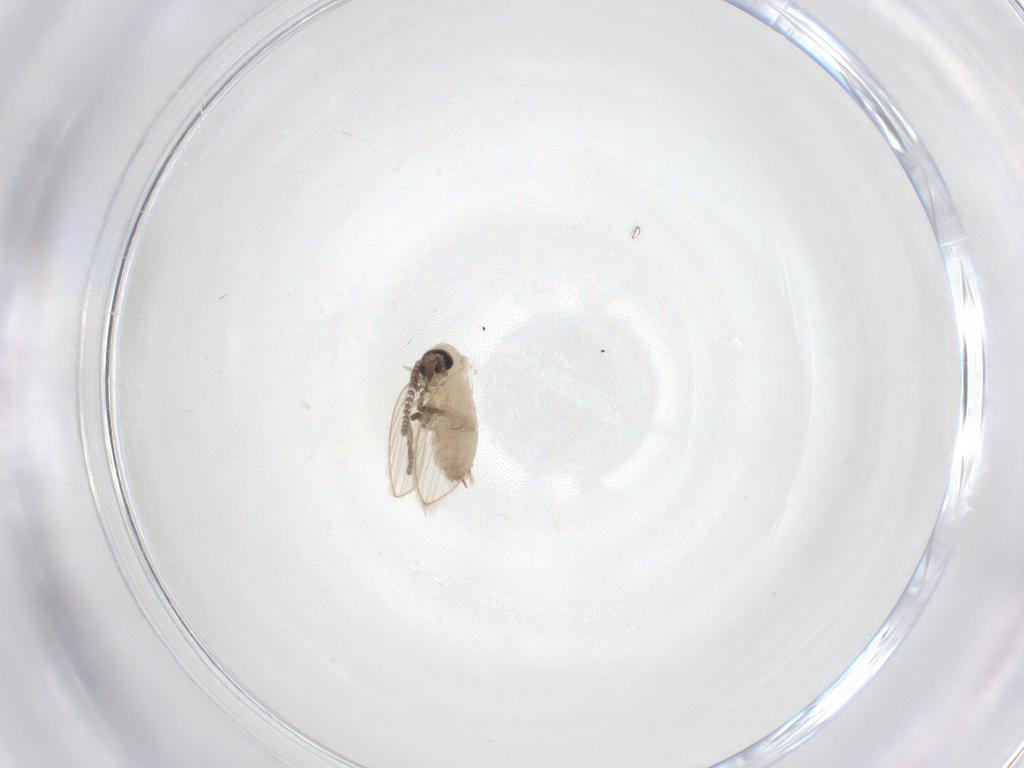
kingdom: Animalia
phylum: Arthropoda
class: Insecta
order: Diptera
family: Psychodidae
